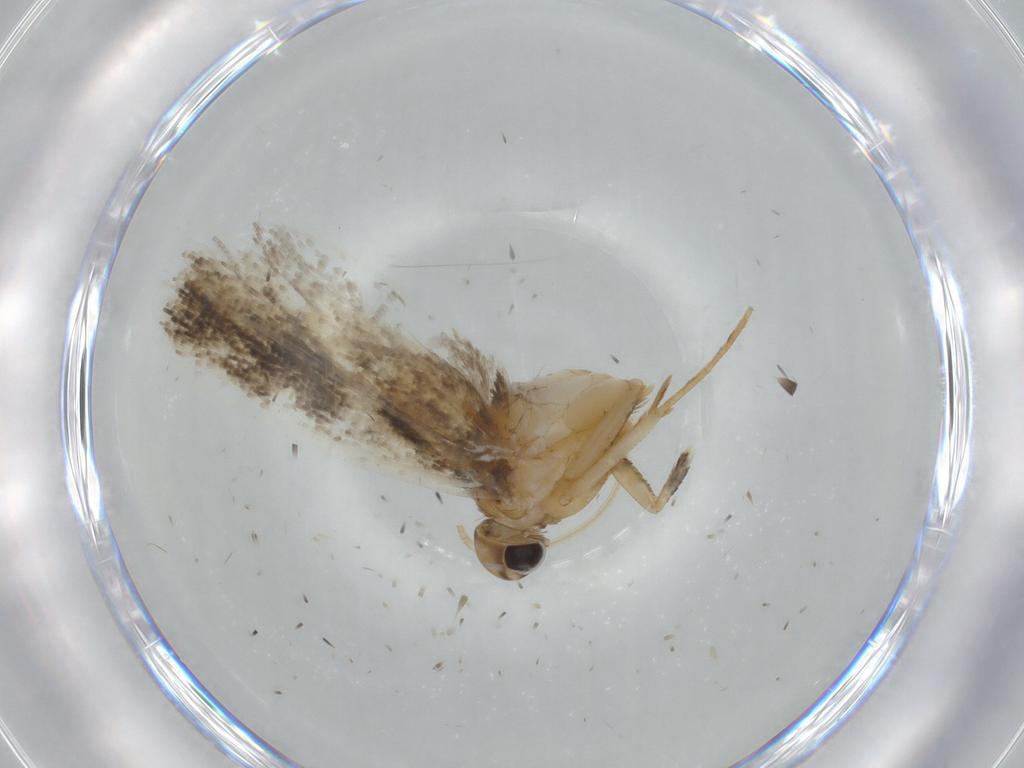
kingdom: Animalia
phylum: Arthropoda
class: Insecta
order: Lepidoptera
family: Gelechiidae
